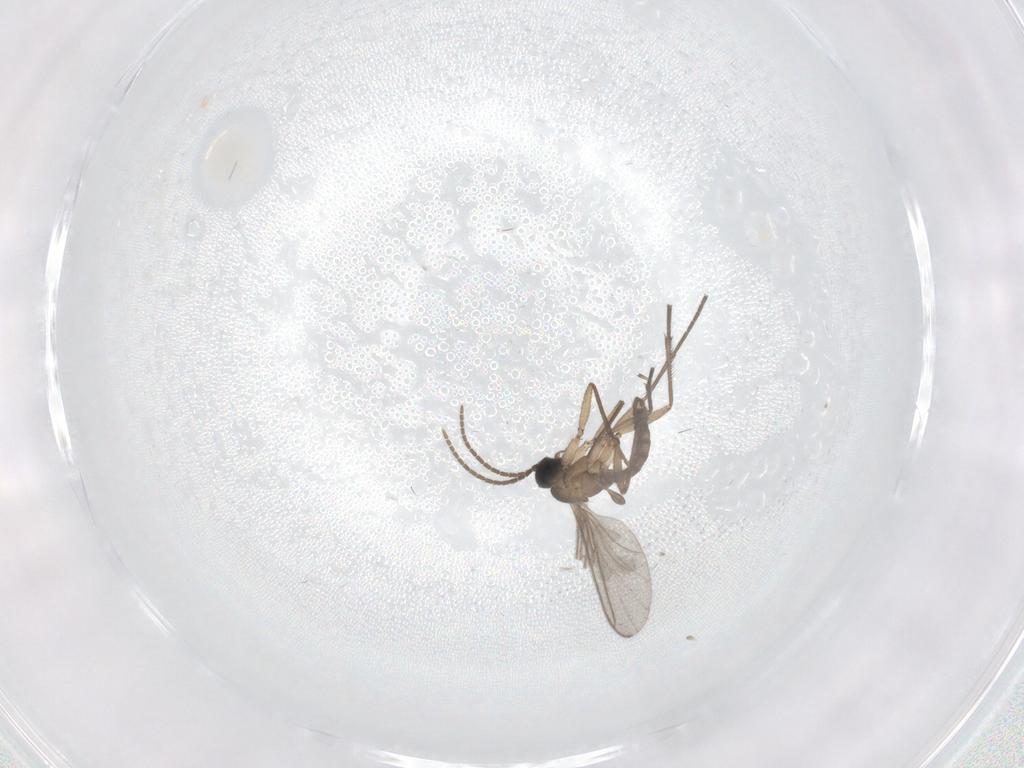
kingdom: Animalia
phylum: Arthropoda
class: Insecta
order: Diptera
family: Sciaridae
